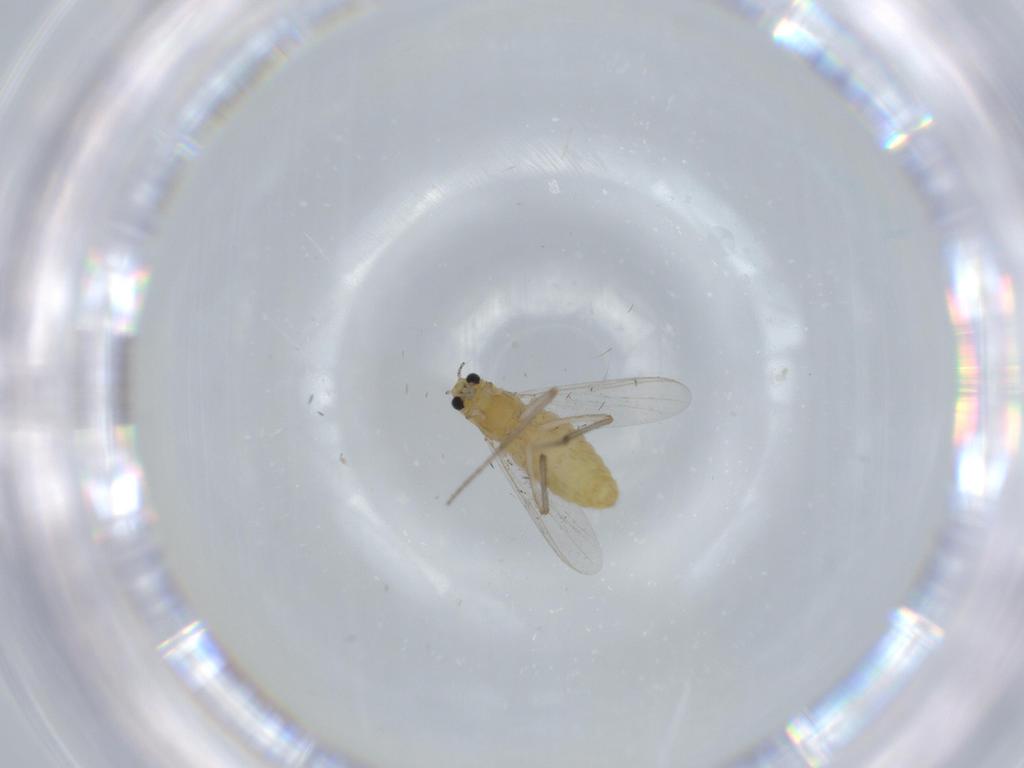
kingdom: Animalia
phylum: Arthropoda
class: Insecta
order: Diptera
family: Chironomidae
